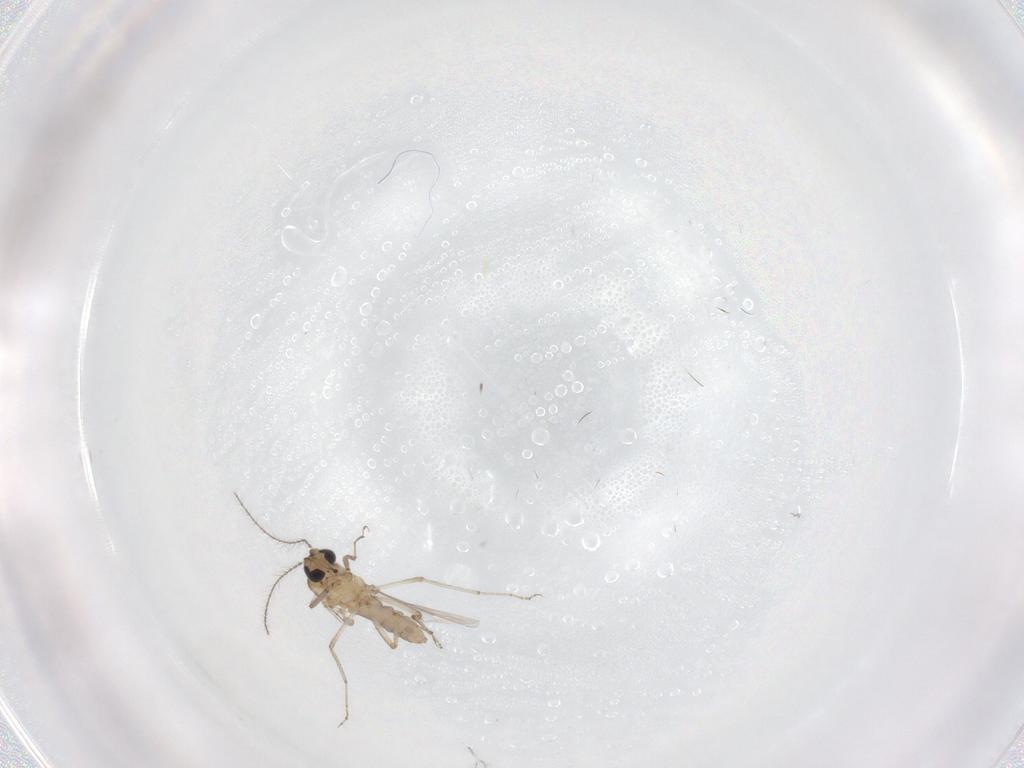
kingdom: Animalia
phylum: Arthropoda
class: Insecta
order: Diptera
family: Ceratopogonidae
